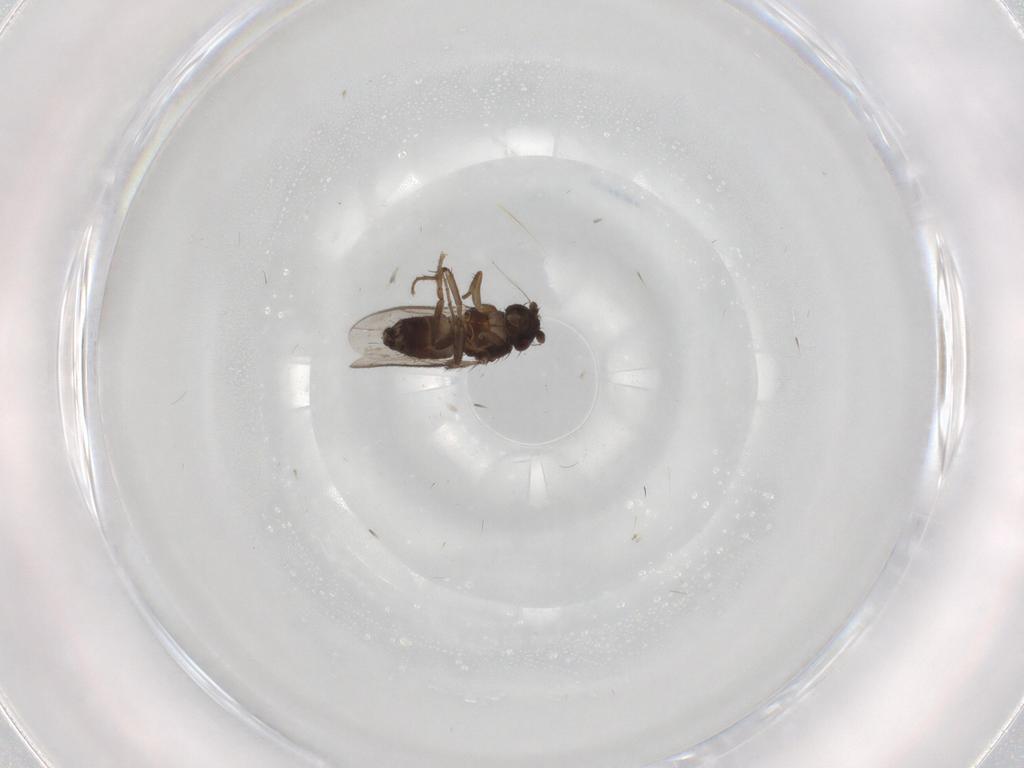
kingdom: Animalia
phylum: Arthropoda
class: Insecta
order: Diptera
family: Sphaeroceridae
